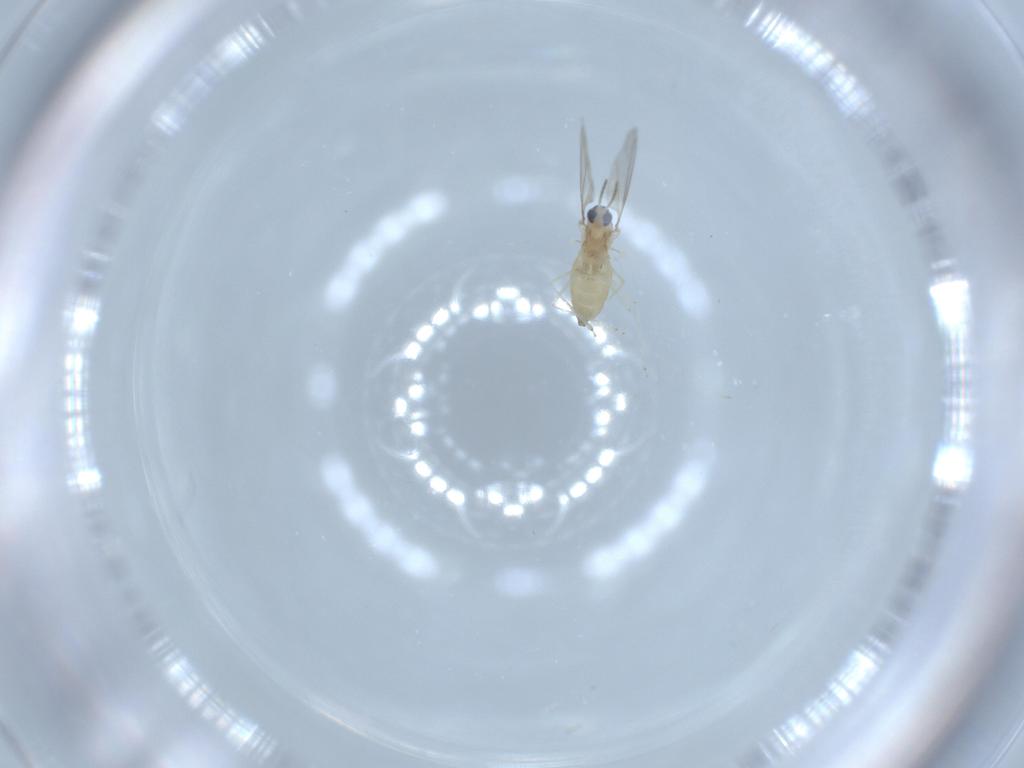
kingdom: Animalia
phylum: Arthropoda
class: Insecta
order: Diptera
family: Cecidomyiidae
